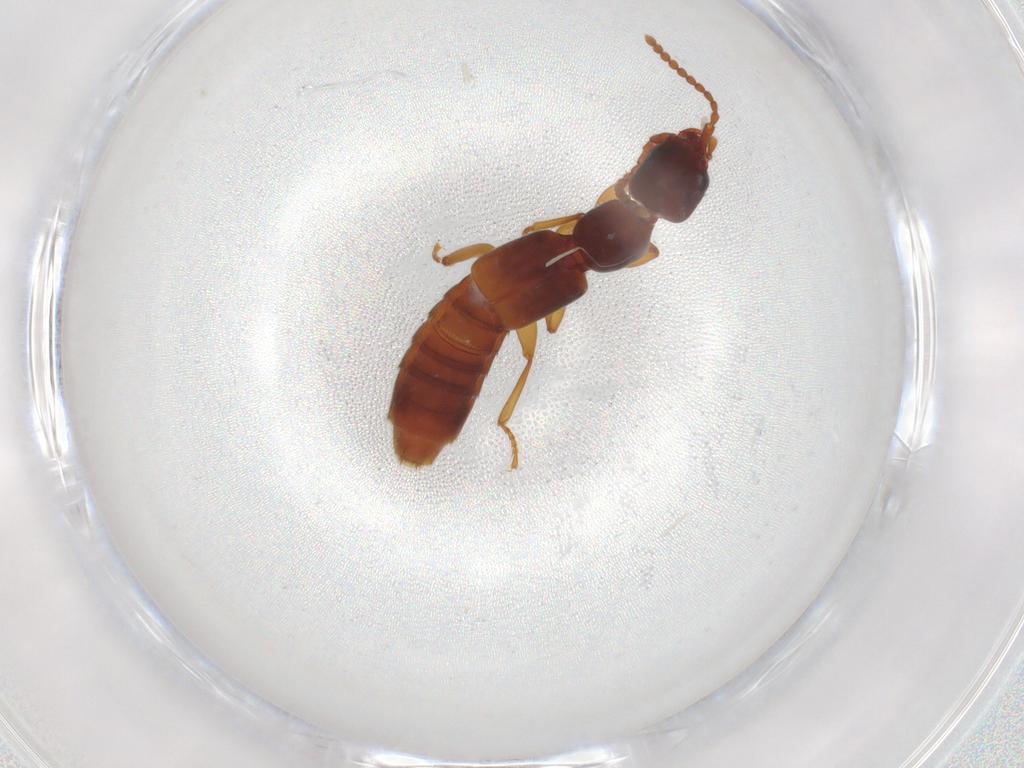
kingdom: Animalia
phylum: Arthropoda
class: Insecta
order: Coleoptera
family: Staphylinidae
